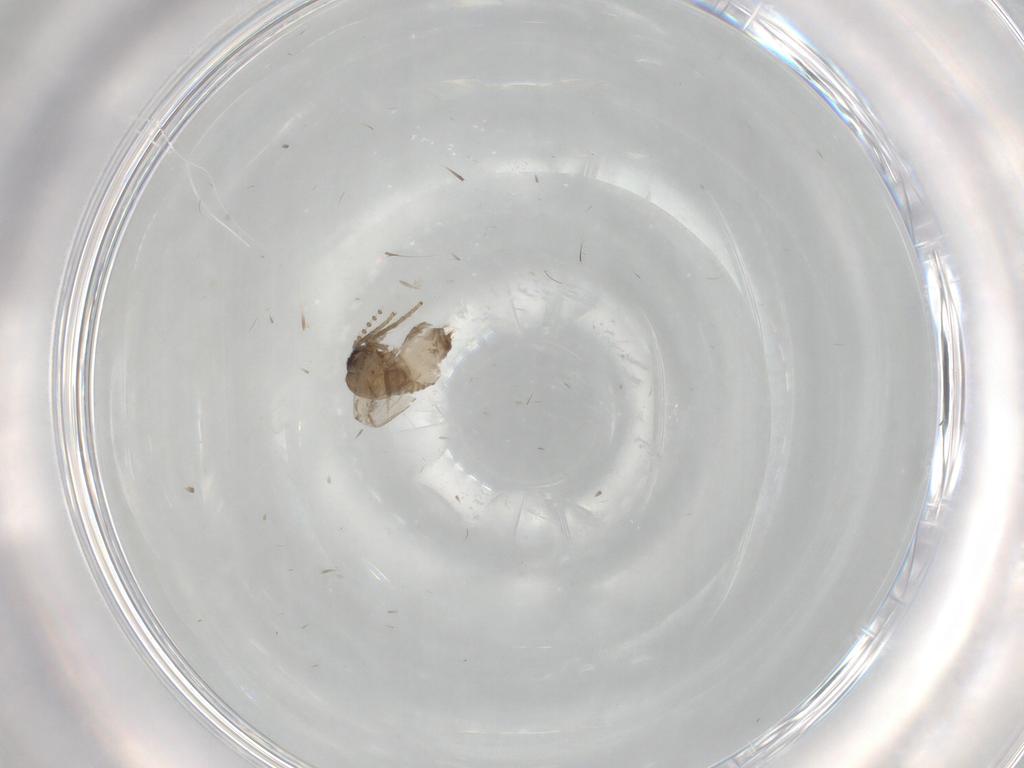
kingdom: Animalia
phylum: Arthropoda
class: Insecta
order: Diptera
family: Psychodidae
